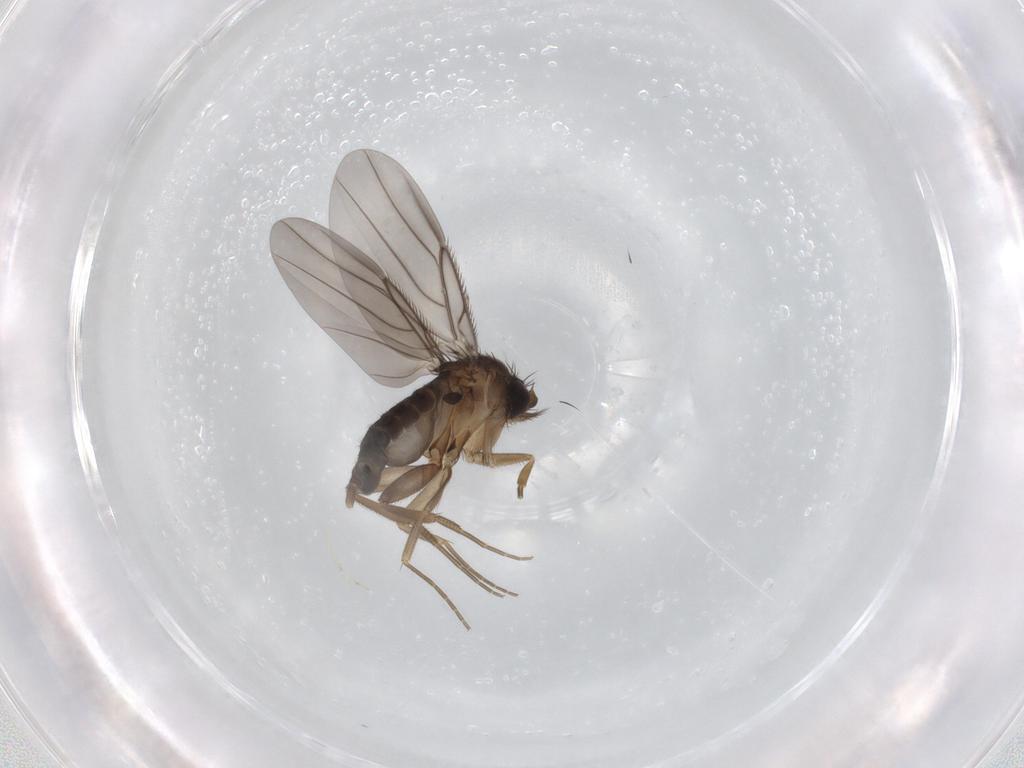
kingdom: Animalia
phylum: Arthropoda
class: Insecta
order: Diptera
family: Phoridae
